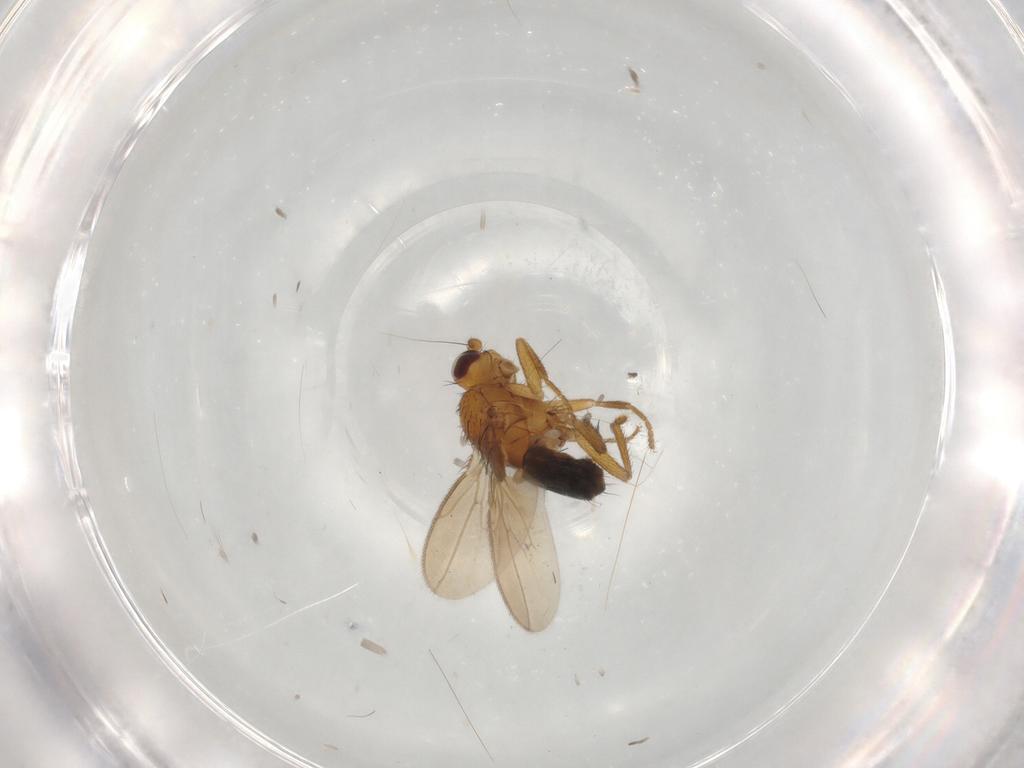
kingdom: Animalia
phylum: Arthropoda
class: Insecta
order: Diptera
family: Sphaeroceridae
